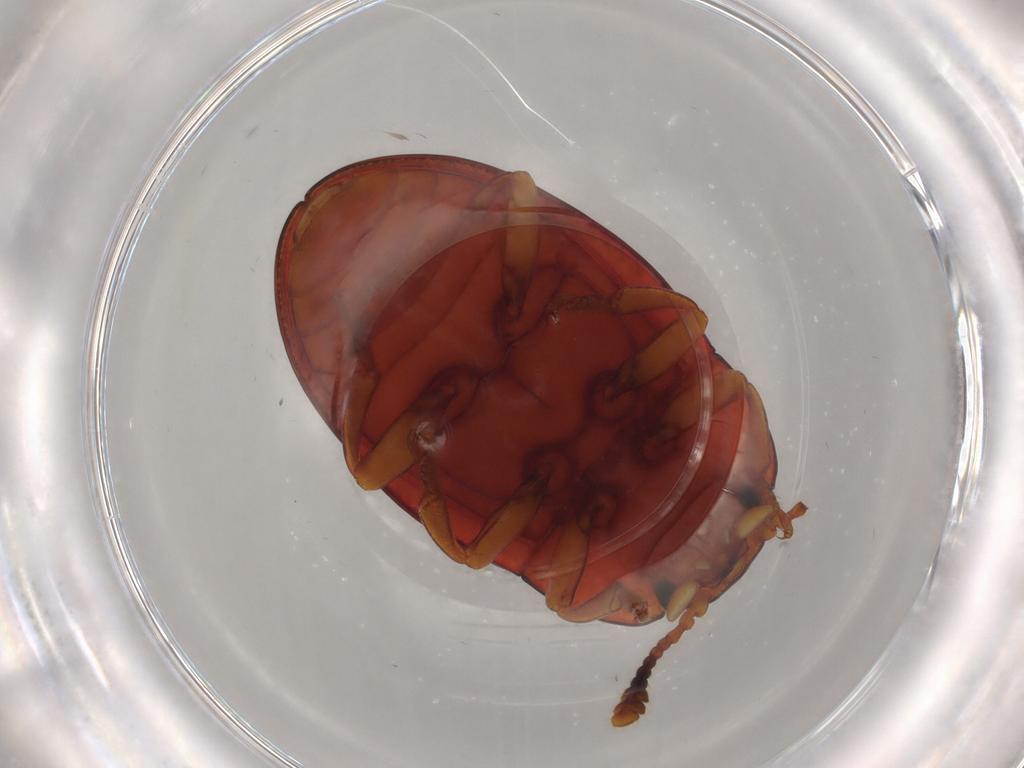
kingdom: Animalia
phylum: Arthropoda
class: Insecta
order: Coleoptera
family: Erotylidae
